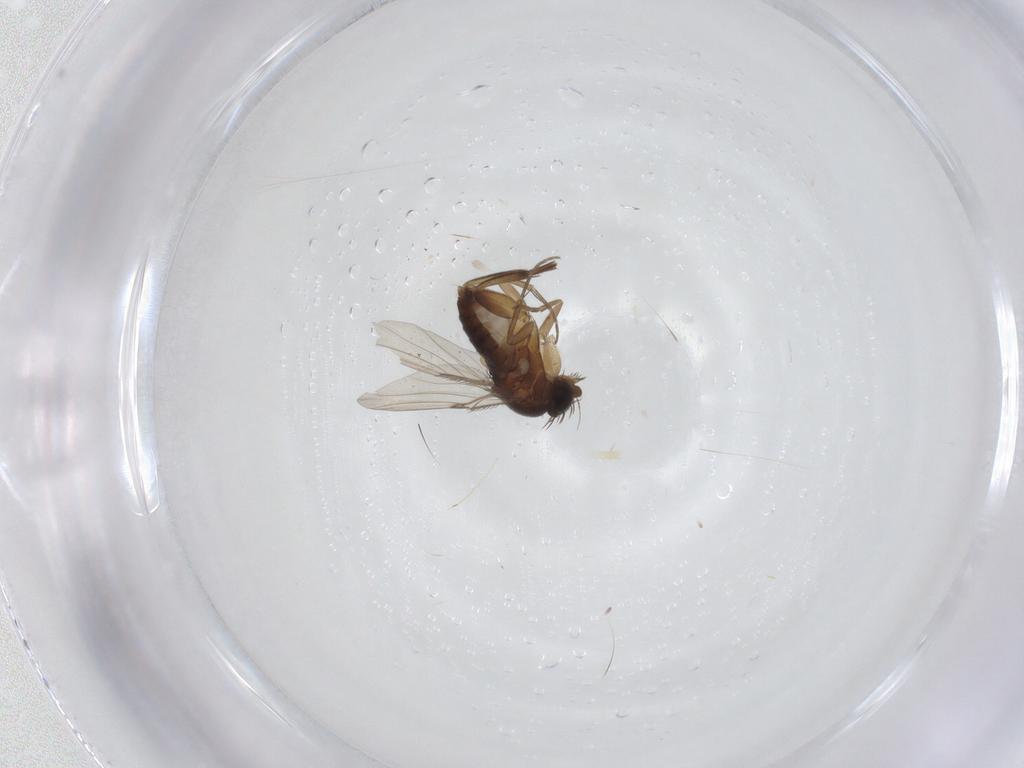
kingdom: Animalia
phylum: Arthropoda
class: Insecta
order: Diptera
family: Phoridae
